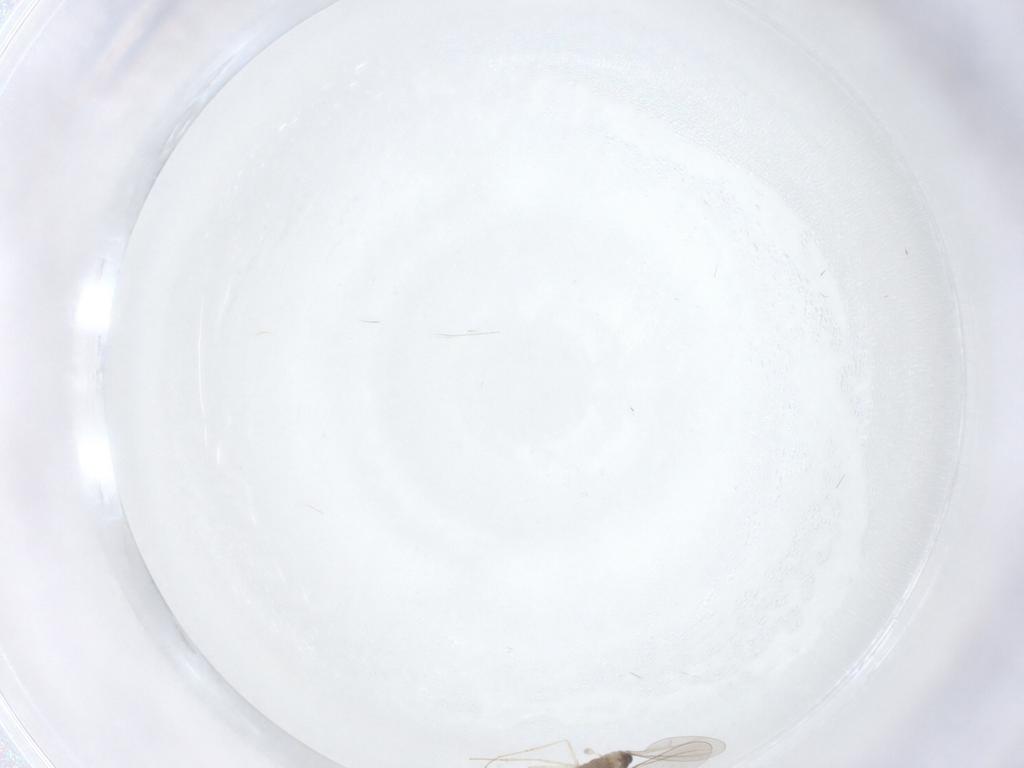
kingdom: Animalia
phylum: Arthropoda
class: Insecta
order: Diptera
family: Cecidomyiidae
